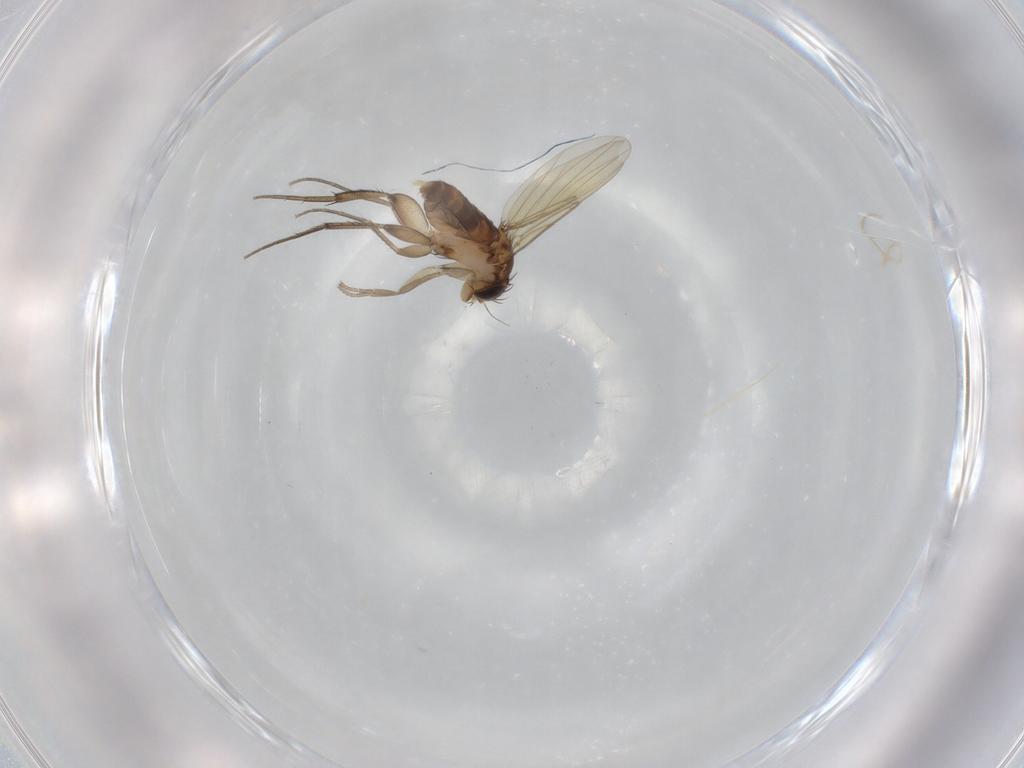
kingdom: Animalia
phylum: Arthropoda
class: Insecta
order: Diptera
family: Phoridae
